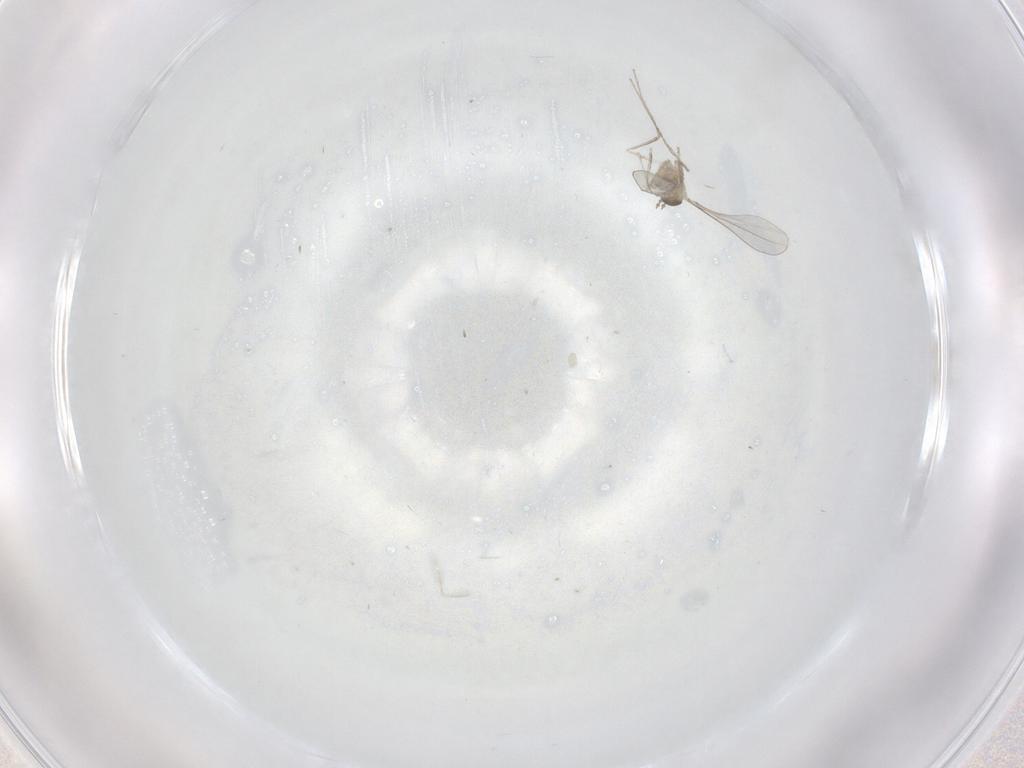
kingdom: Animalia
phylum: Arthropoda
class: Insecta
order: Diptera
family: Cecidomyiidae
